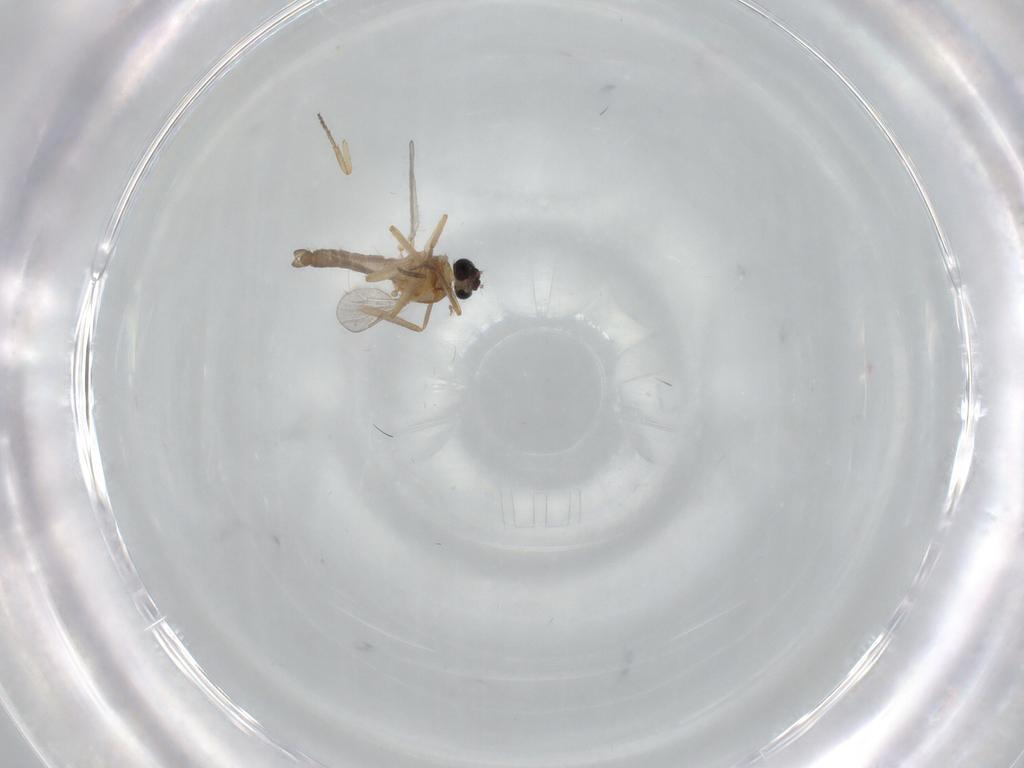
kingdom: Animalia
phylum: Arthropoda
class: Insecta
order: Diptera
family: Ceratopogonidae
